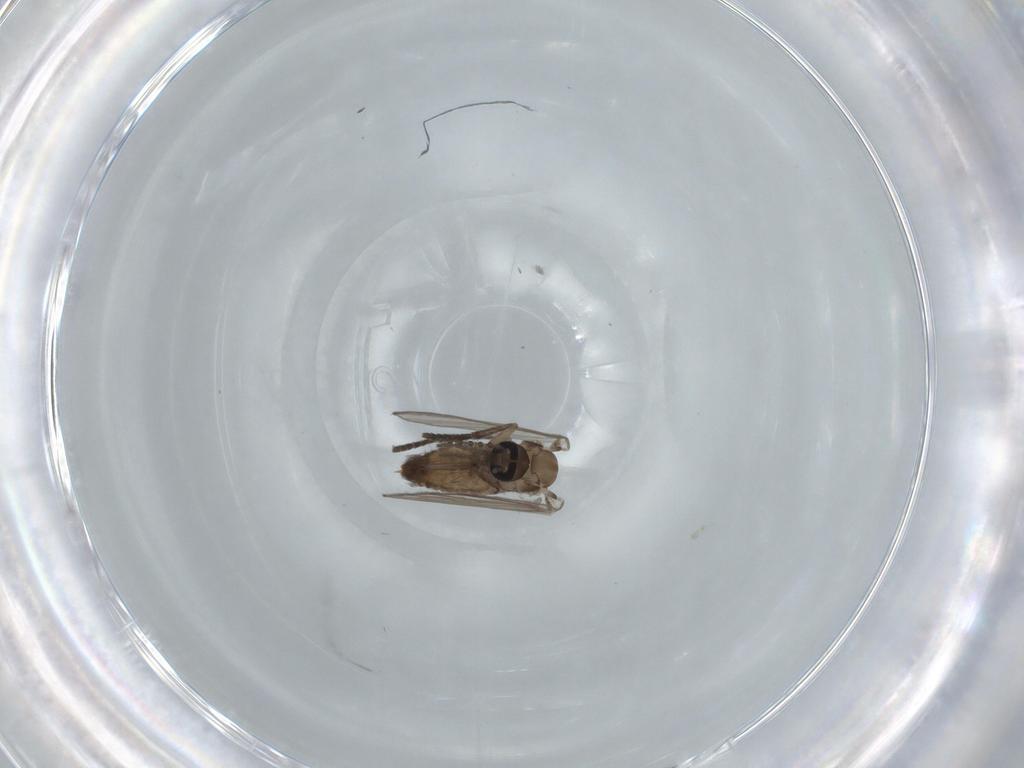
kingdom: Animalia
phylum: Arthropoda
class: Insecta
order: Diptera
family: Psychodidae
